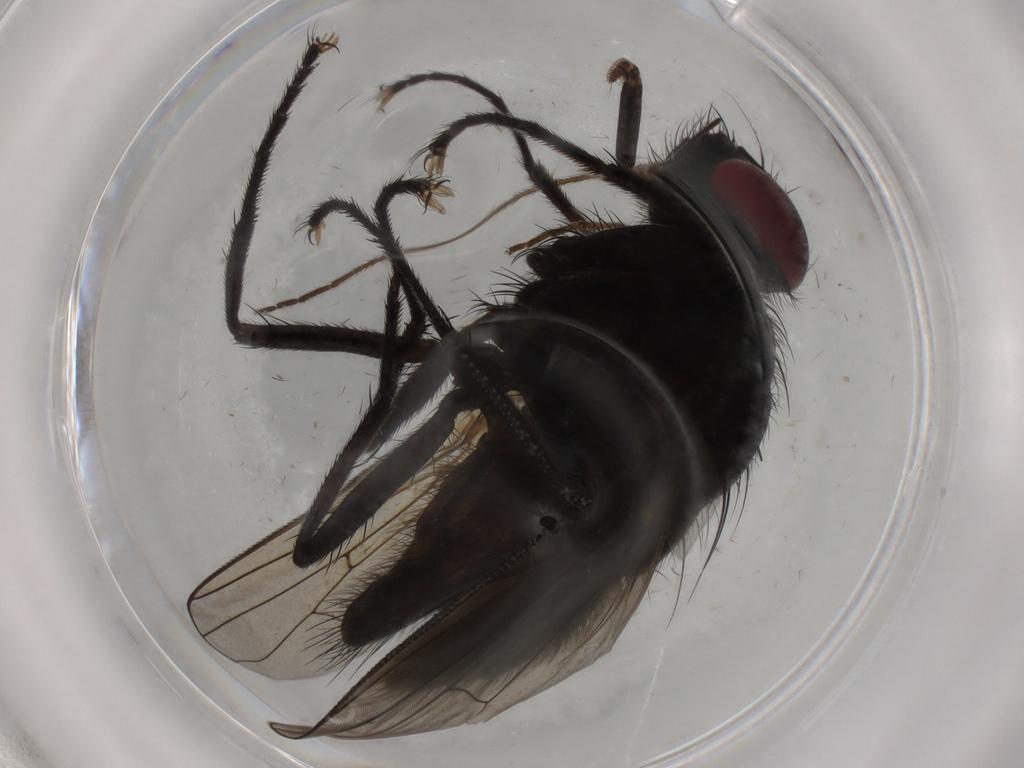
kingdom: Animalia
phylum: Arthropoda
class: Insecta
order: Diptera
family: Muscidae
